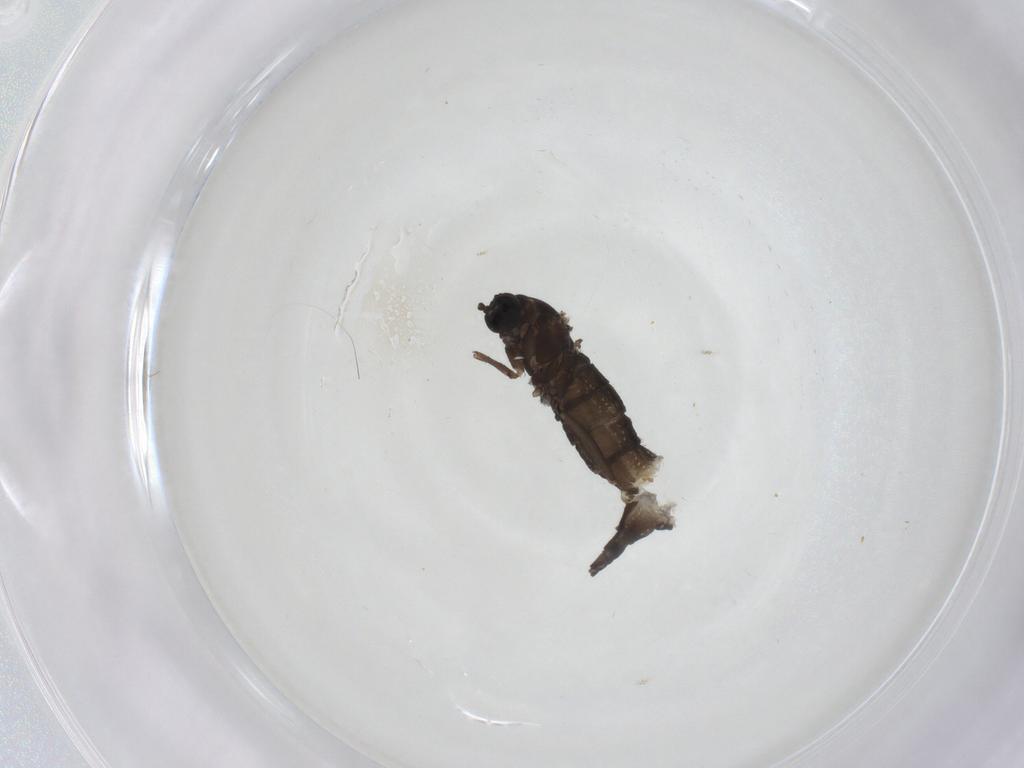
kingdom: Animalia
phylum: Arthropoda
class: Insecta
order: Diptera
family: Sciaridae
